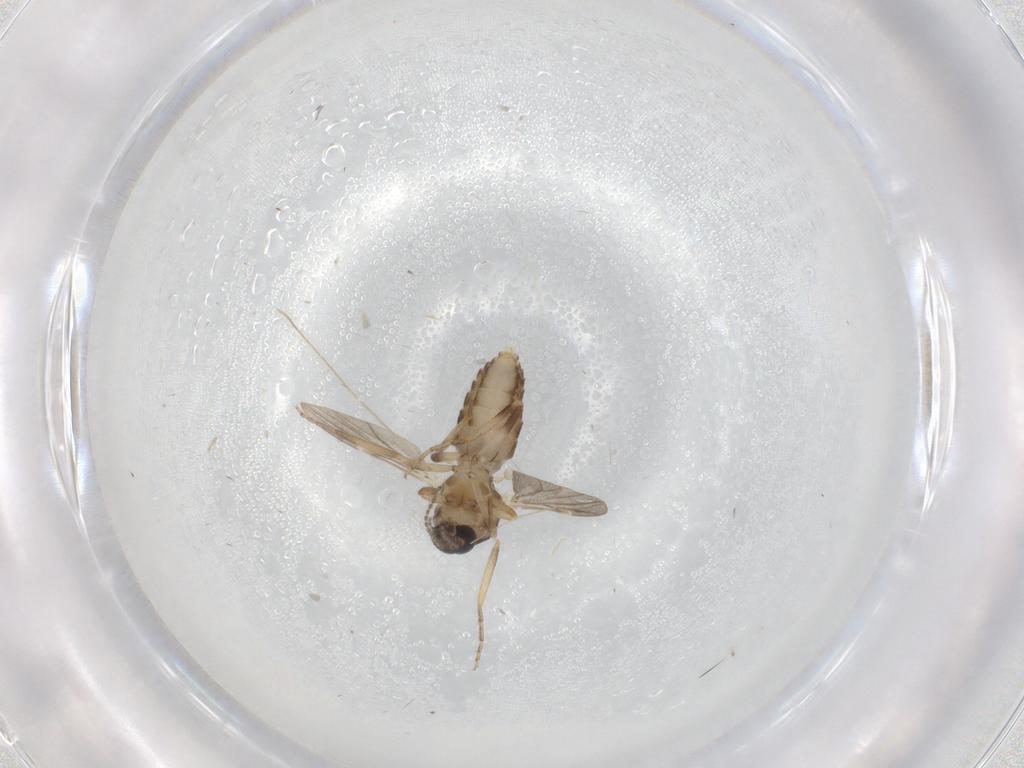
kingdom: Animalia
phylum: Arthropoda
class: Insecta
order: Diptera
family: Ceratopogonidae
